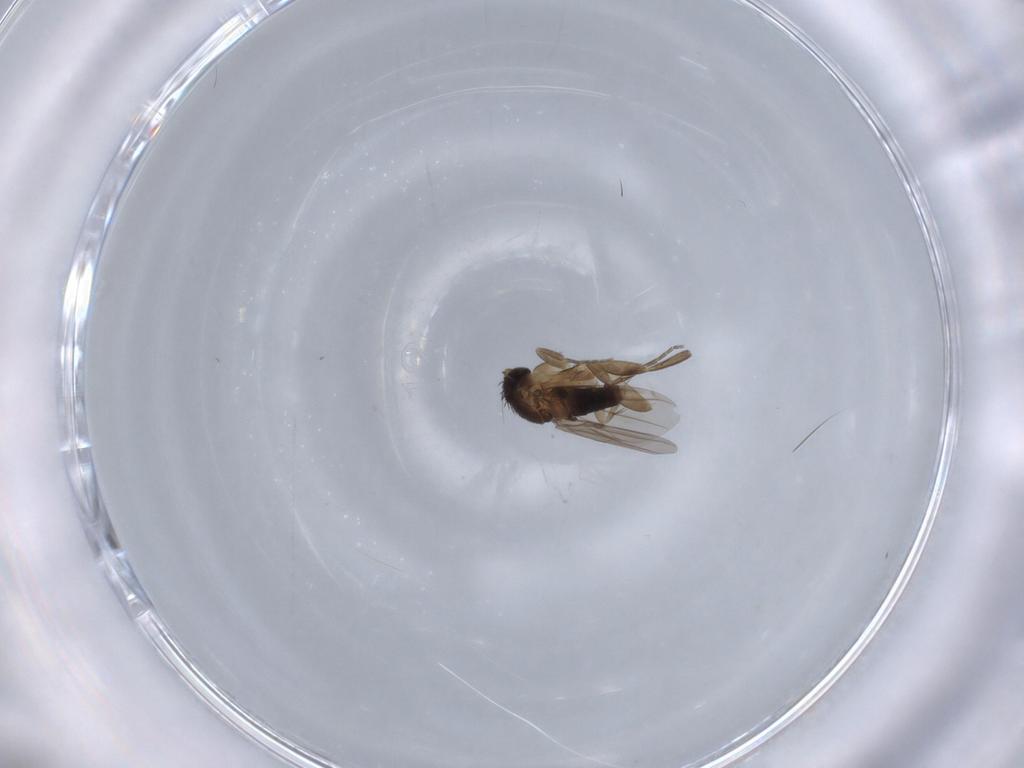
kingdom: Animalia
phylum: Arthropoda
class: Insecta
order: Diptera
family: Phoridae
